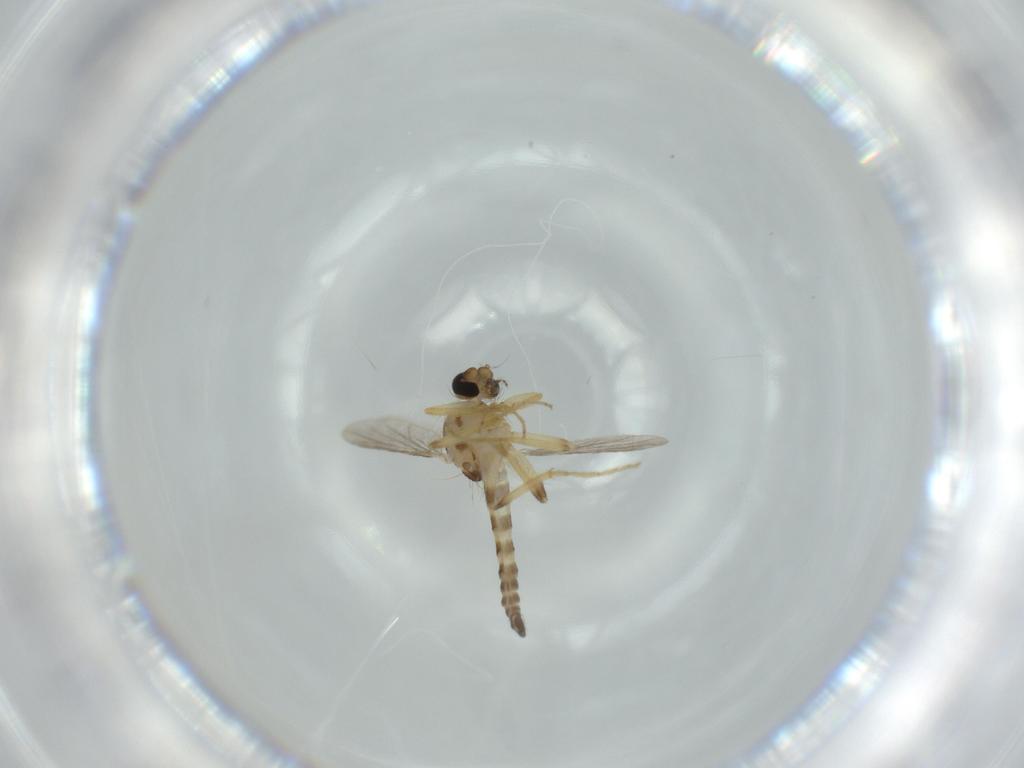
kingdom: Animalia
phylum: Arthropoda
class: Insecta
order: Diptera
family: Ceratopogonidae
